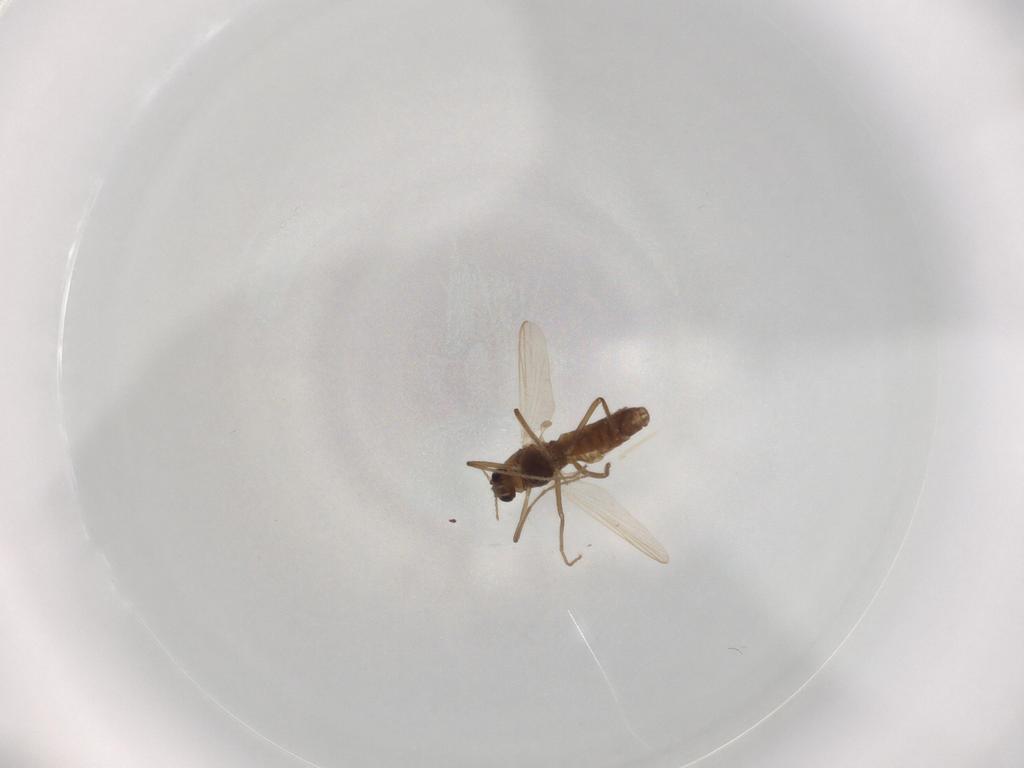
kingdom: Animalia
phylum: Arthropoda
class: Insecta
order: Diptera
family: Chironomidae
